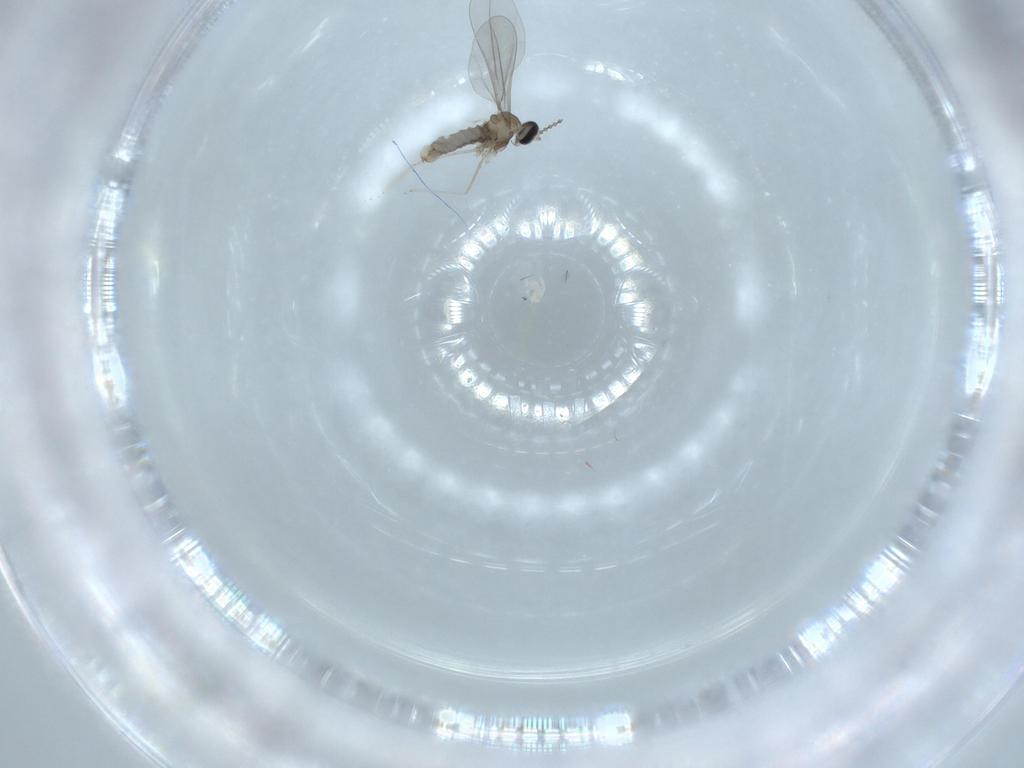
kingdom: Animalia
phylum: Arthropoda
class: Insecta
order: Diptera
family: Cecidomyiidae
